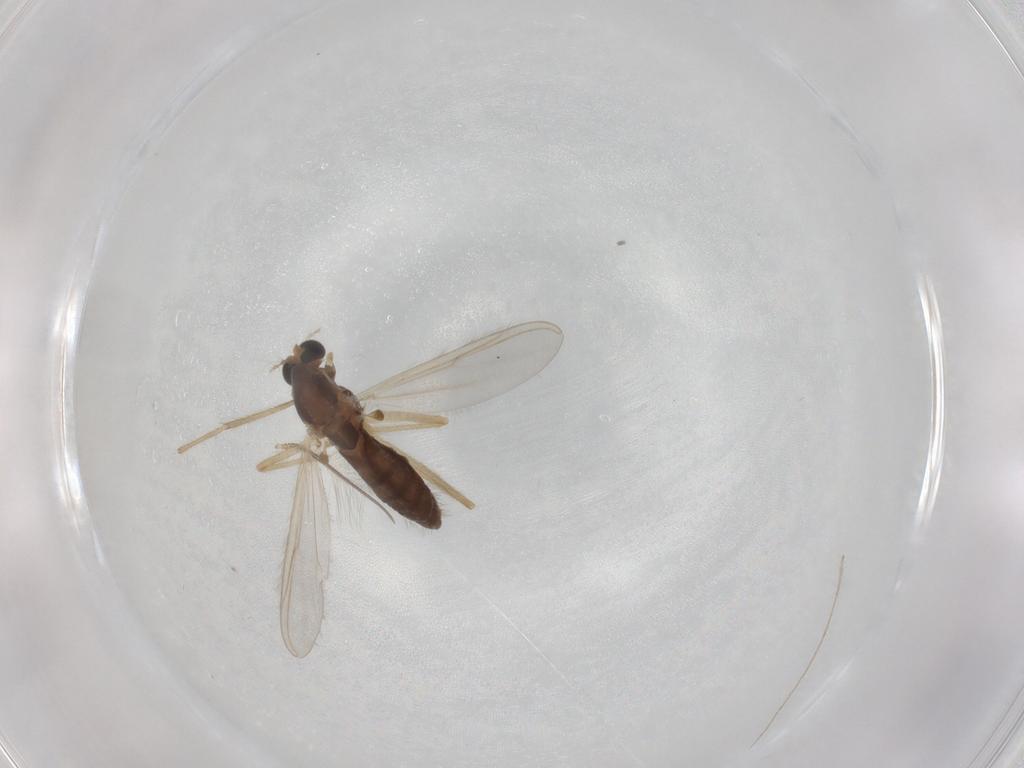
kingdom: Animalia
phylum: Arthropoda
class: Insecta
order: Diptera
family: Chironomidae
